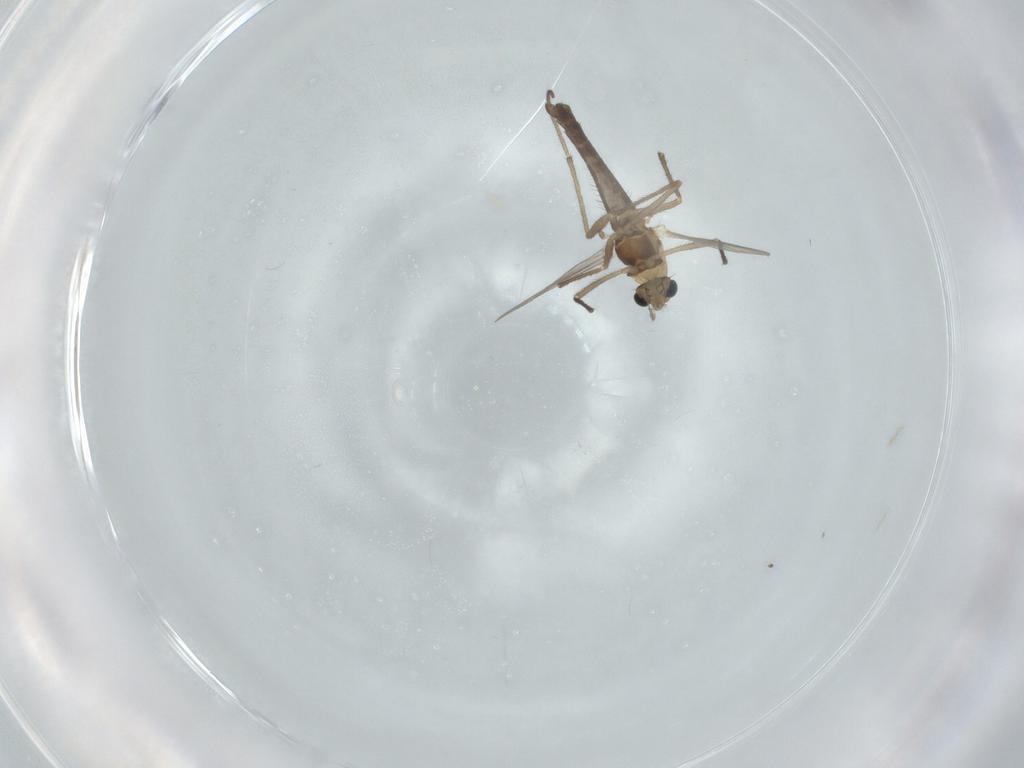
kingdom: Animalia
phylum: Arthropoda
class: Insecta
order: Diptera
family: Chironomidae
